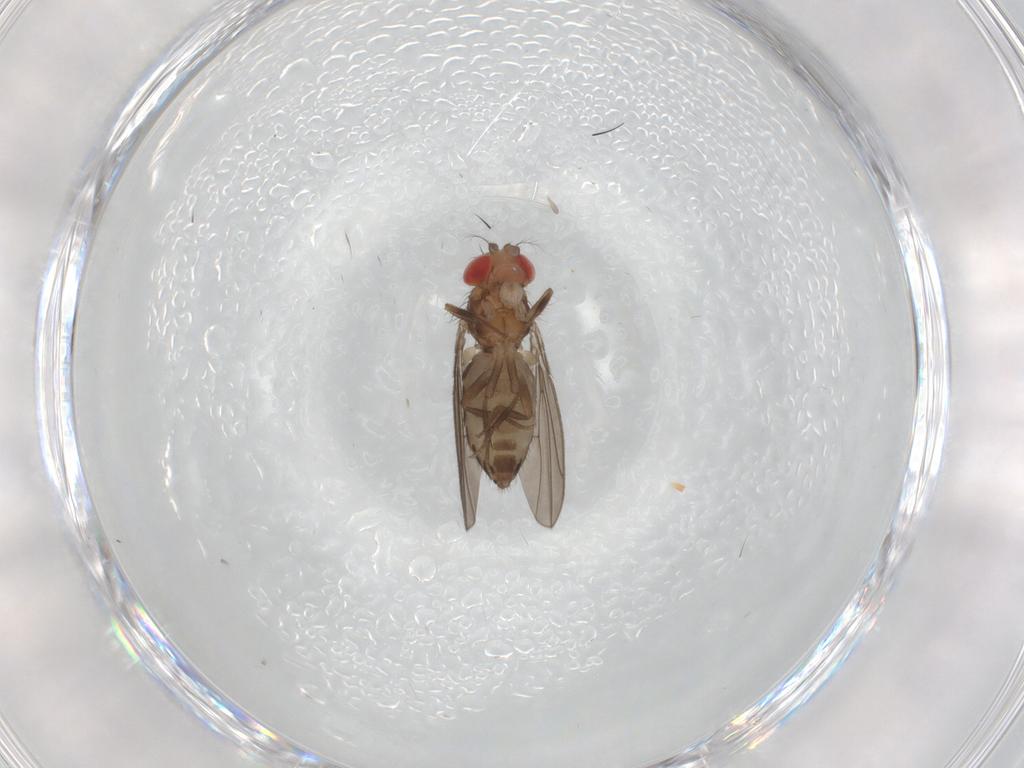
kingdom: Animalia
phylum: Arthropoda
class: Insecta
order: Diptera
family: Drosophilidae
